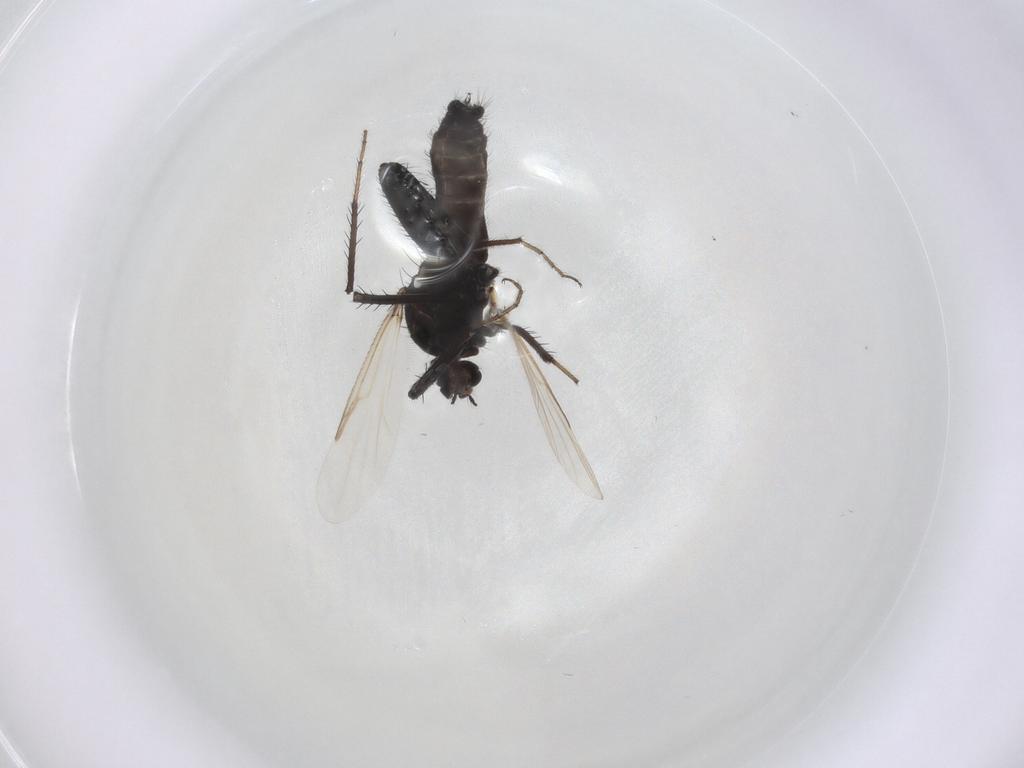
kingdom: Animalia
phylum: Arthropoda
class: Insecta
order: Diptera
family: Ceratopogonidae
